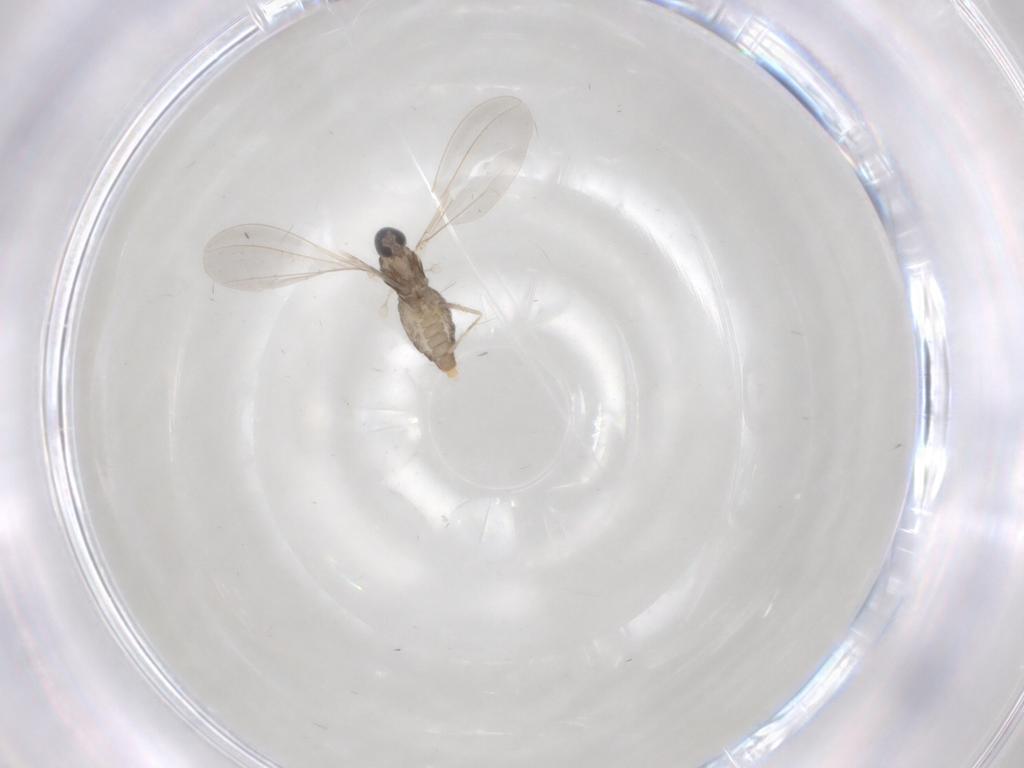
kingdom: Animalia
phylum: Arthropoda
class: Insecta
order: Diptera
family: Cecidomyiidae
